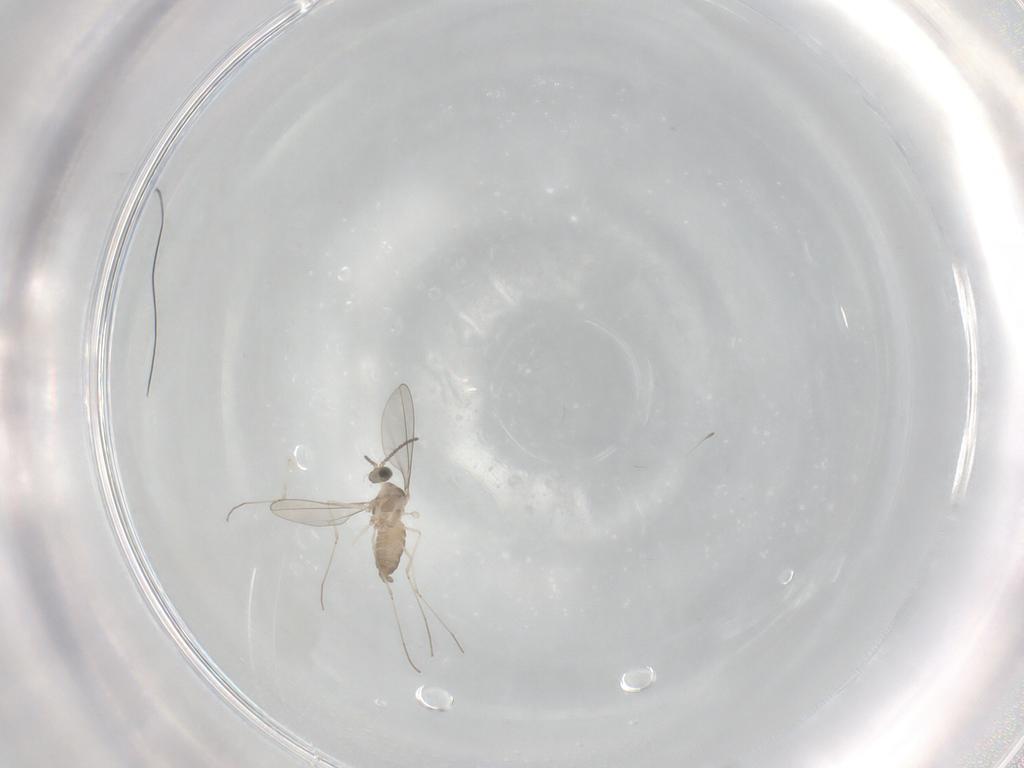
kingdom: Animalia
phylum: Arthropoda
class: Insecta
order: Diptera
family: Cecidomyiidae
